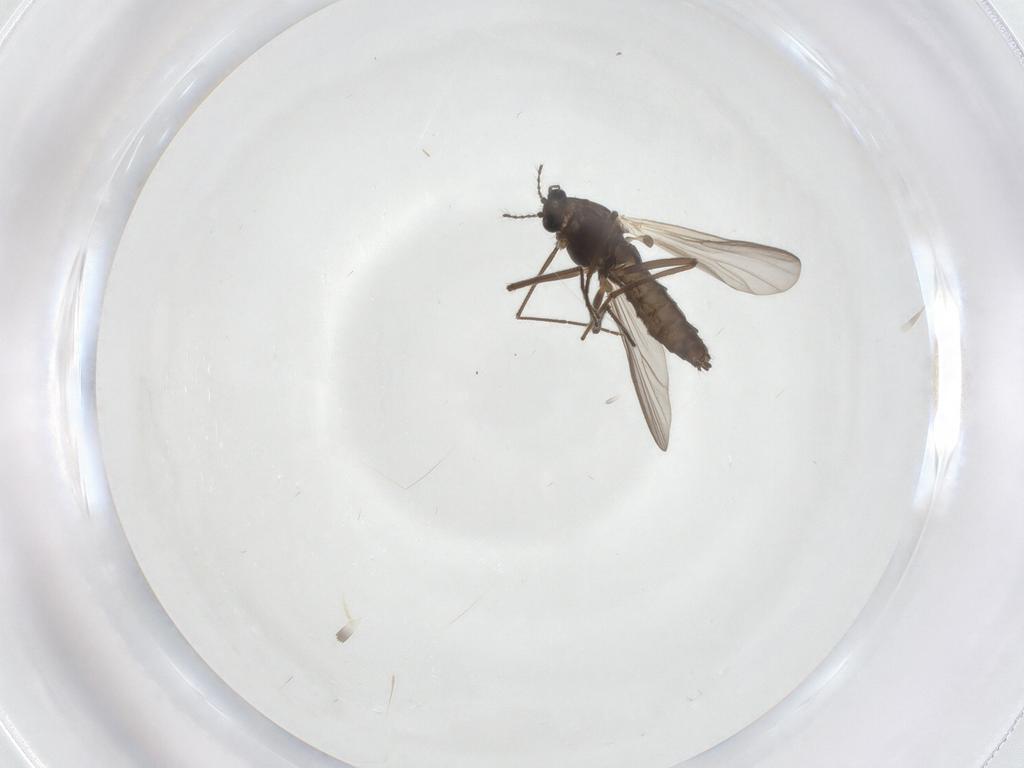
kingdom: Animalia
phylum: Arthropoda
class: Insecta
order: Diptera
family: Chironomidae
